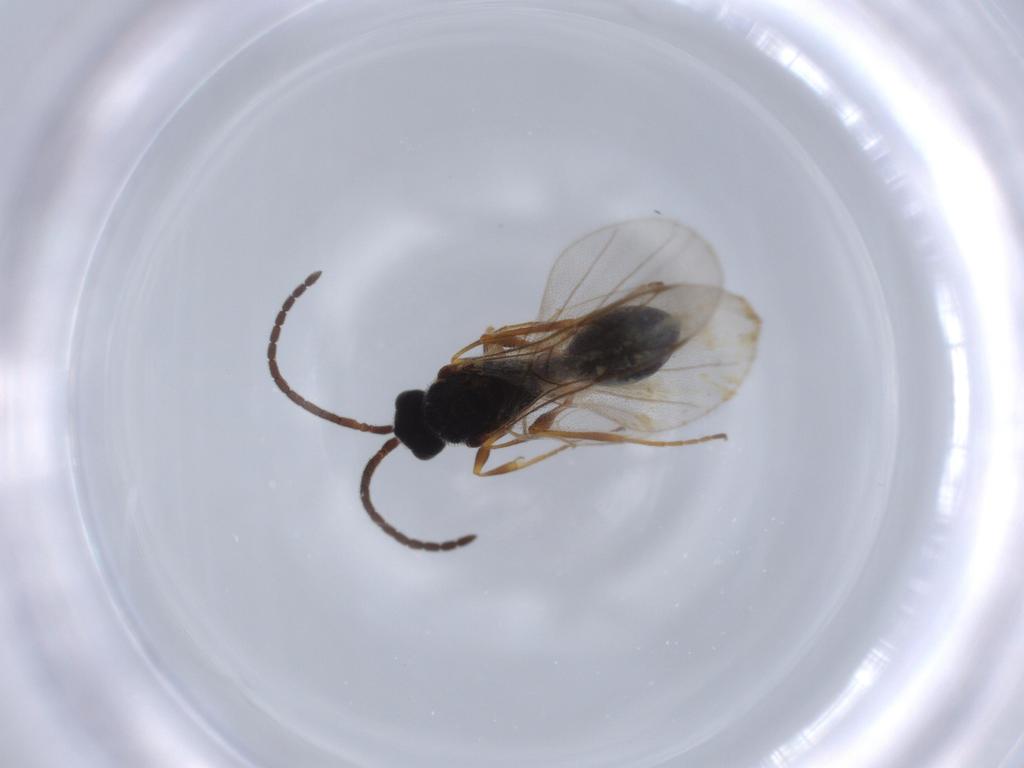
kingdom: Animalia
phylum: Arthropoda
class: Insecta
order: Hymenoptera
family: Diapriidae
